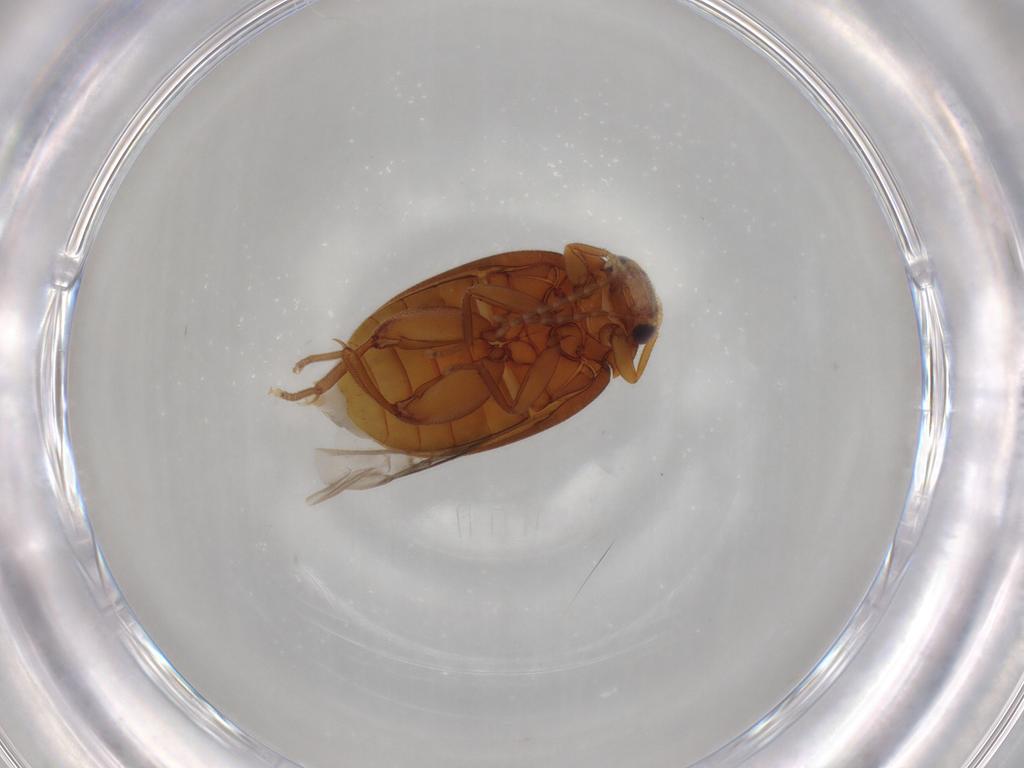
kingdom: Animalia
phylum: Arthropoda
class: Insecta
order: Coleoptera
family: Scirtidae
